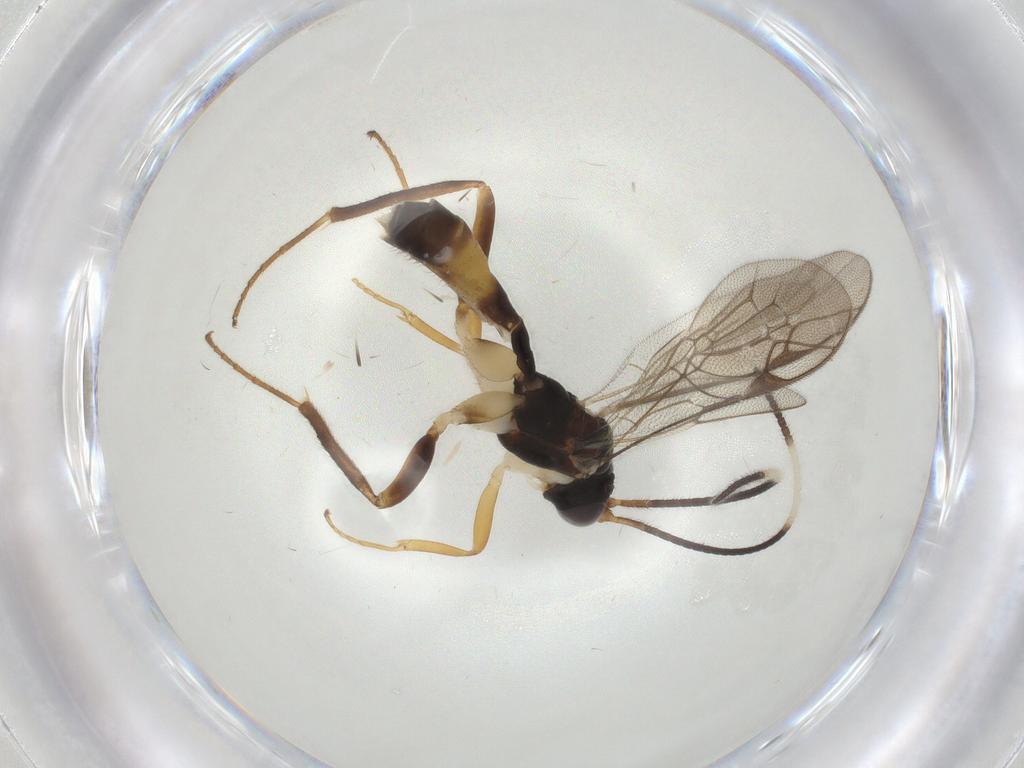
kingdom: Animalia
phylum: Arthropoda
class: Insecta
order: Hymenoptera
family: Ichneumonidae
